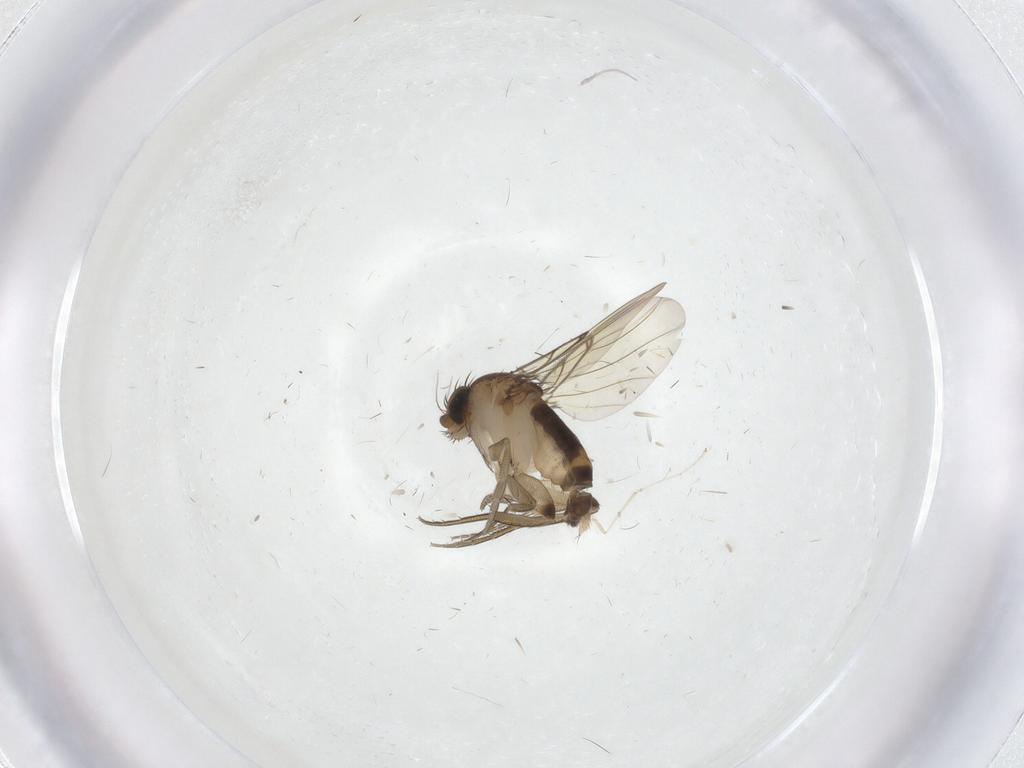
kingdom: Animalia
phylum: Arthropoda
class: Insecta
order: Diptera
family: Phoridae
